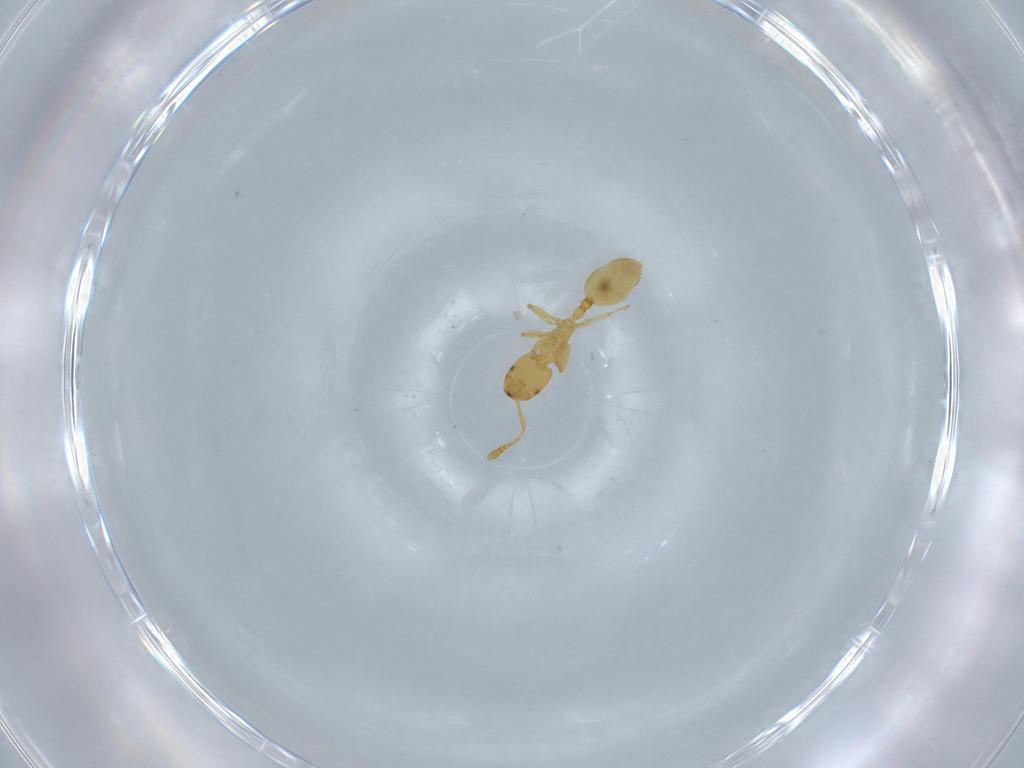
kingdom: Animalia
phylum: Arthropoda
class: Insecta
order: Hymenoptera
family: Formicidae
